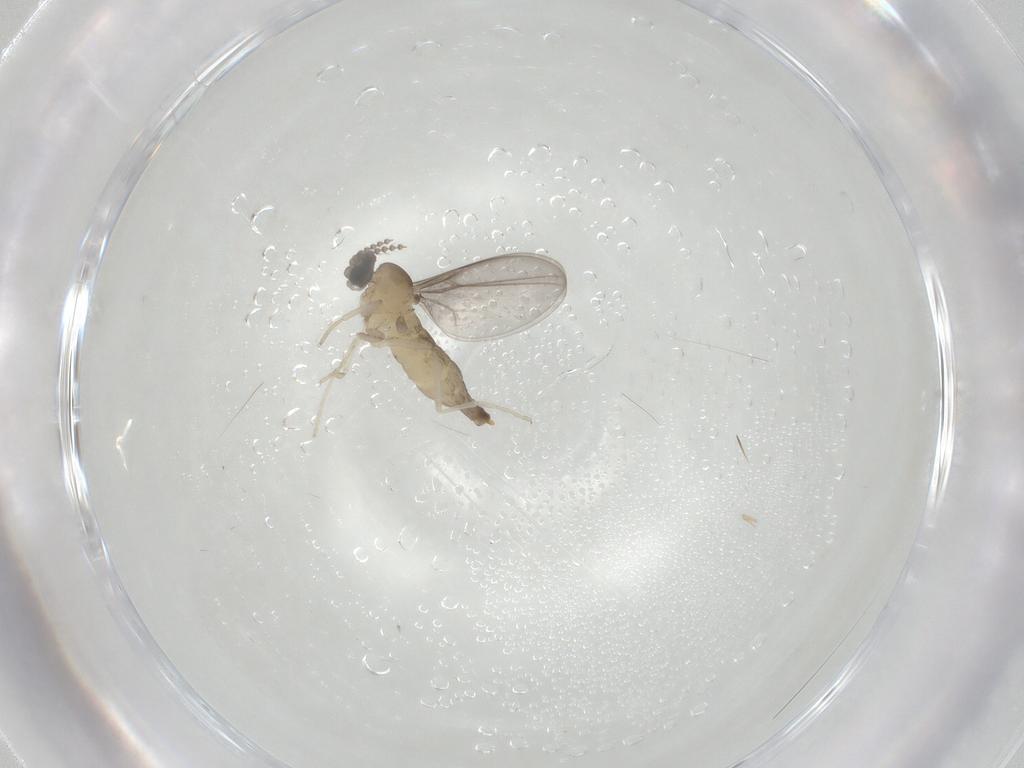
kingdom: Animalia
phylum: Arthropoda
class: Insecta
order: Diptera
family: Cecidomyiidae
